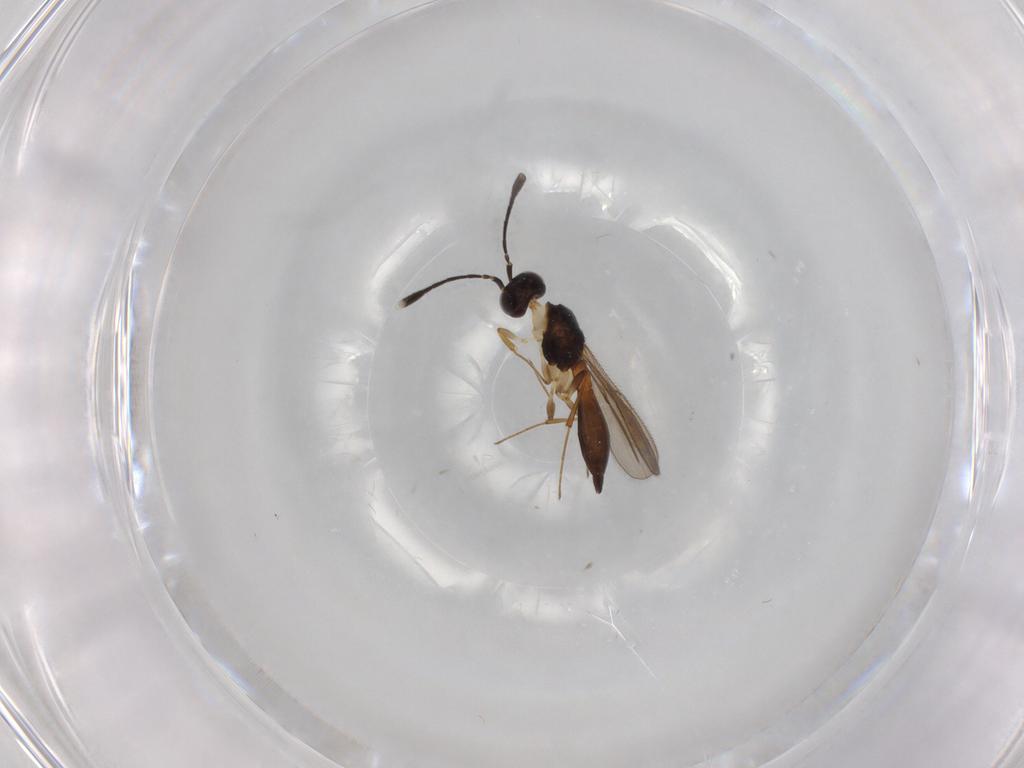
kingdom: Animalia
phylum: Arthropoda
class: Insecta
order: Hymenoptera
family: Scelionidae
